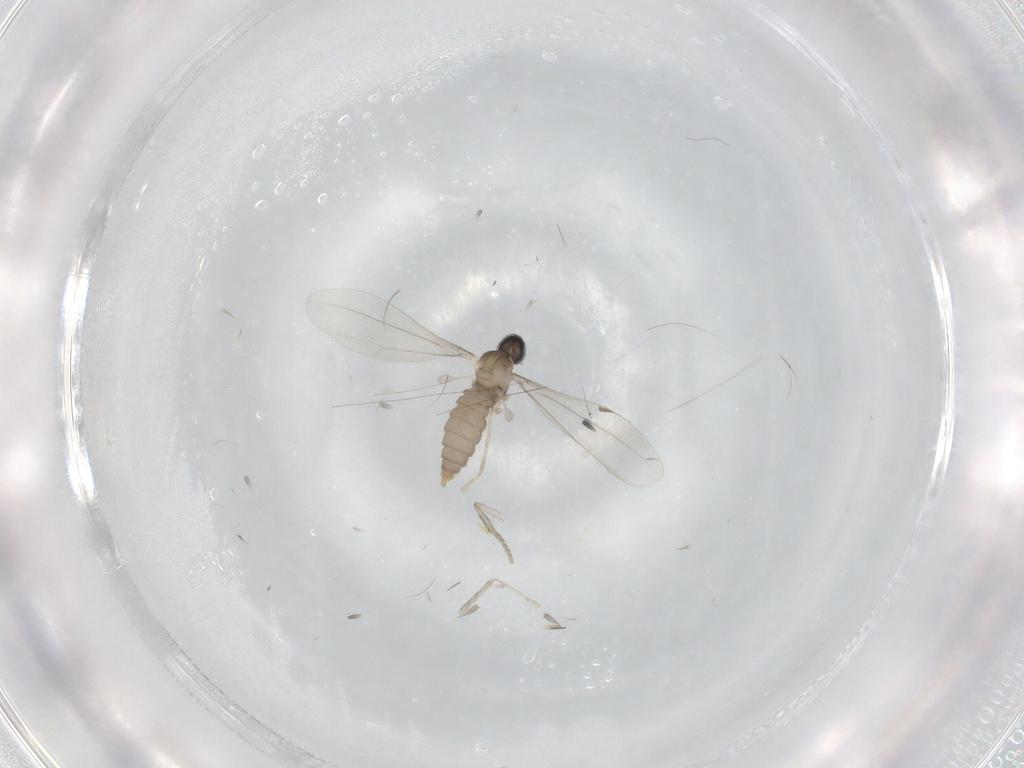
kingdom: Animalia
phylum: Arthropoda
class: Insecta
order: Diptera
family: Psychodidae
